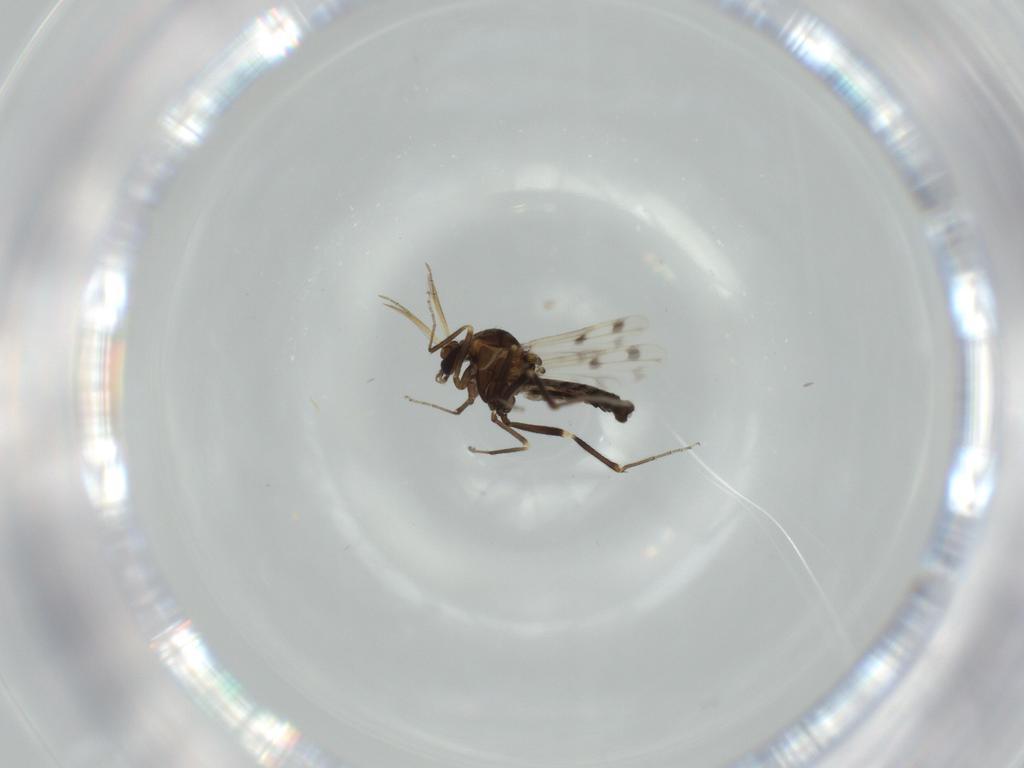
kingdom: Animalia
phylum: Arthropoda
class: Insecta
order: Diptera
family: Ceratopogonidae
